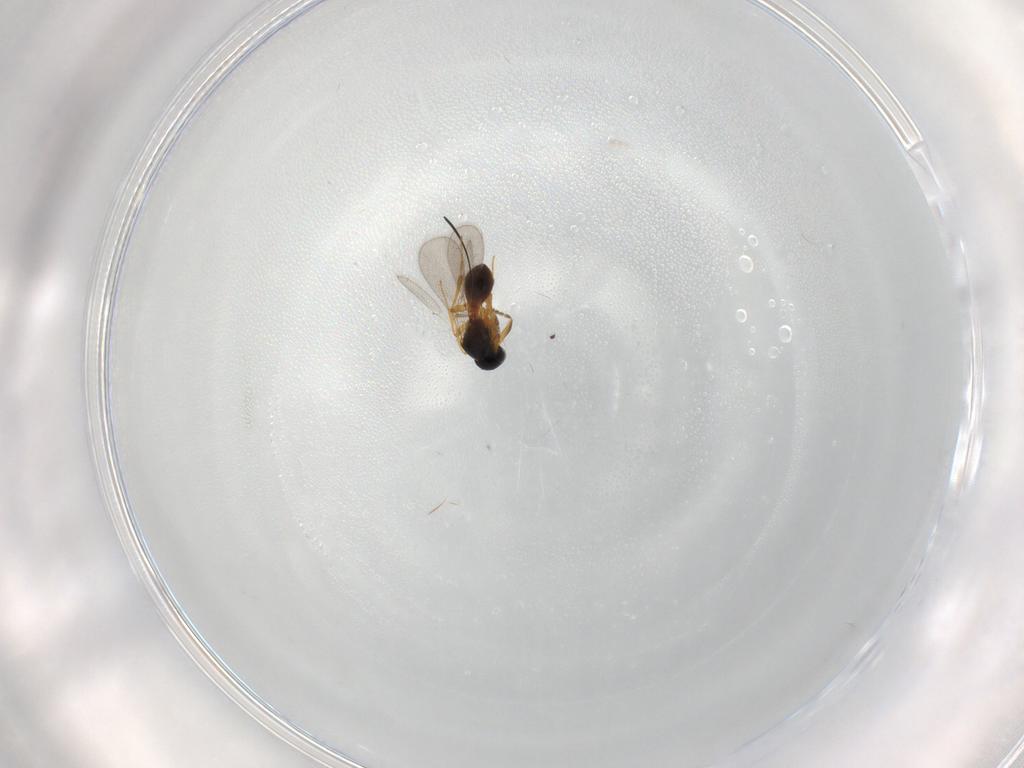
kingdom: Animalia
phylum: Arthropoda
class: Insecta
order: Hymenoptera
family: Platygastridae
